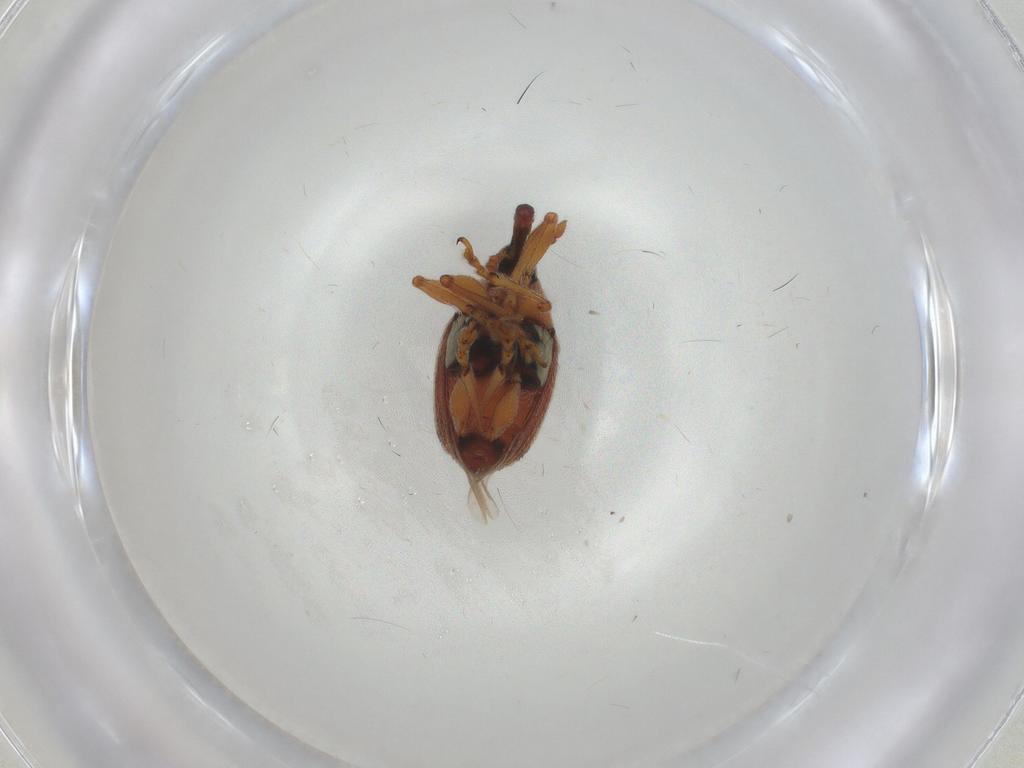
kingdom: Animalia
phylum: Arthropoda
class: Insecta
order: Coleoptera
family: Brentidae
